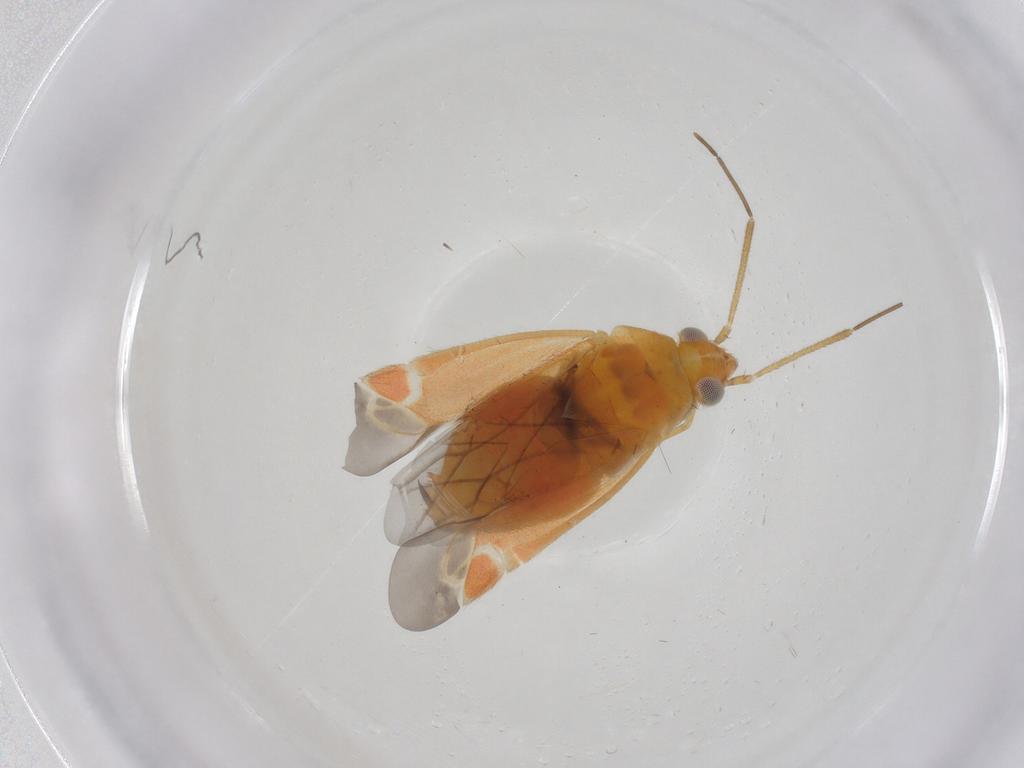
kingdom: Animalia
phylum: Arthropoda
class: Insecta
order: Hemiptera
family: Miridae
